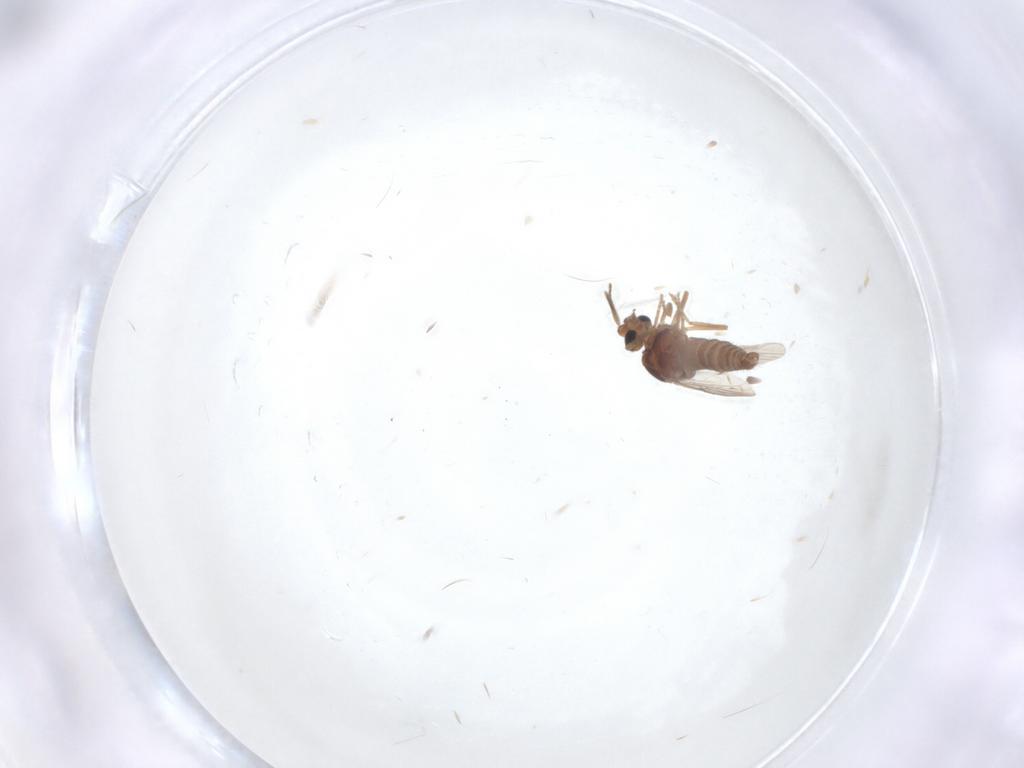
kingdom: Animalia
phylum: Arthropoda
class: Insecta
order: Diptera
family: Ceratopogonidae
